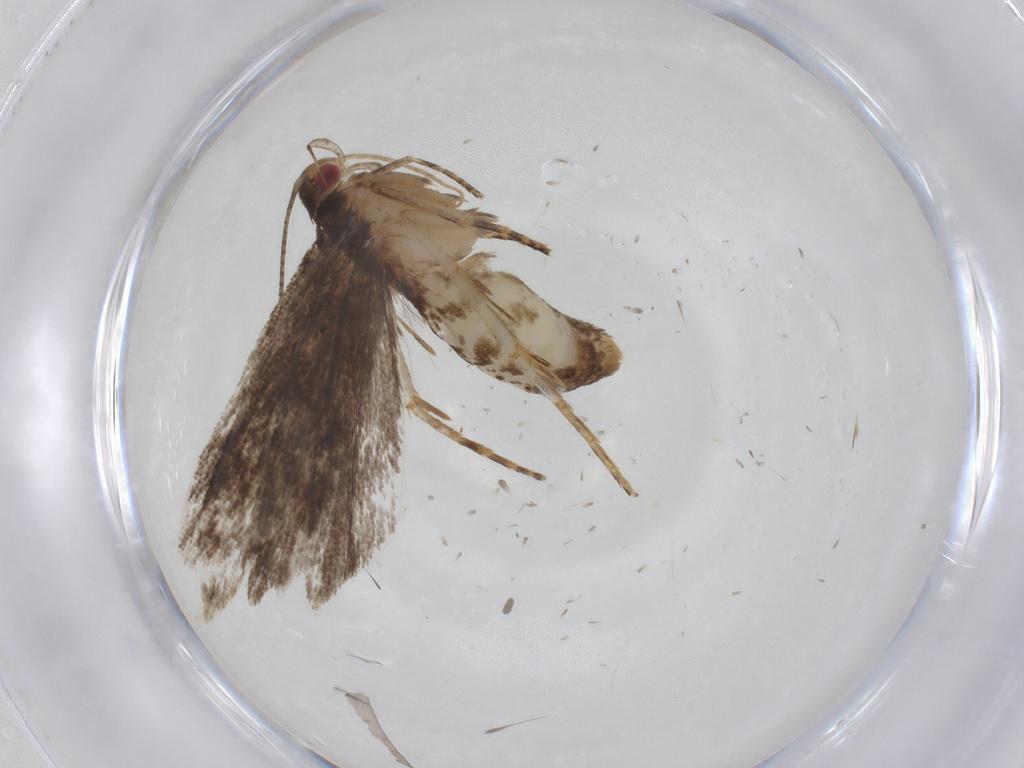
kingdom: Animalia
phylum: Arthropoda
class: Insecta
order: Lepidoptera
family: Gelechiidae
